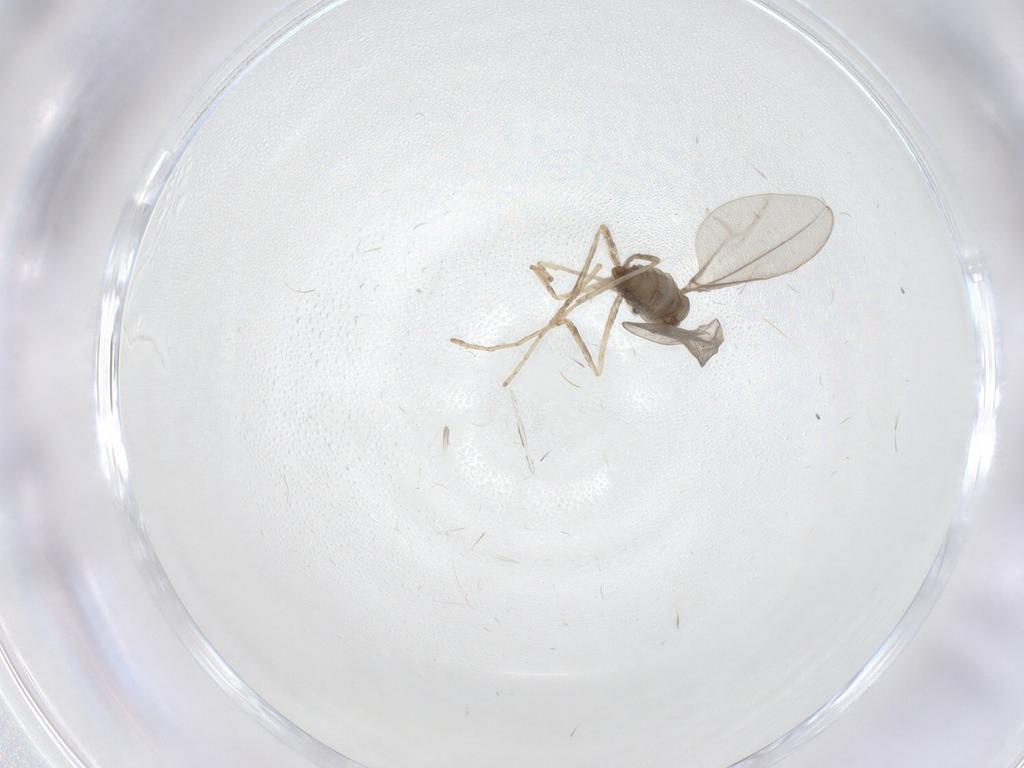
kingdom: Animalia
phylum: Arthropoda
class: Insecta
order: Diptera
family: Cecidomyiidae
